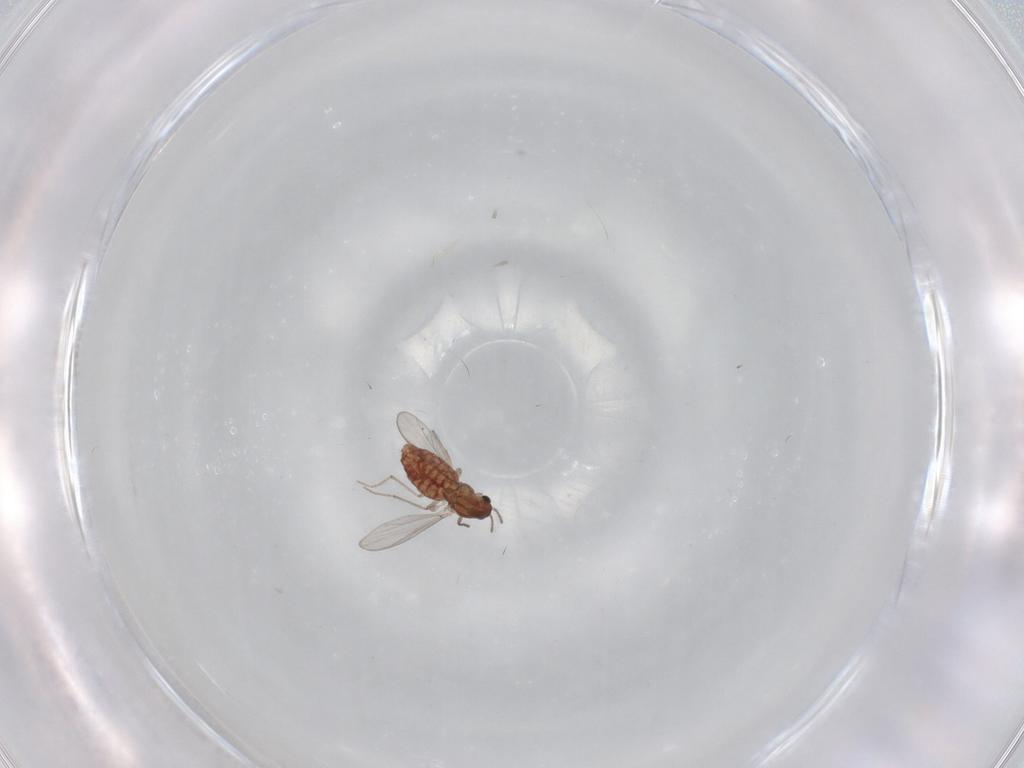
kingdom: Animalia
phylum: Arthropoda
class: Insecta
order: Diptera
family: Chironomidae
